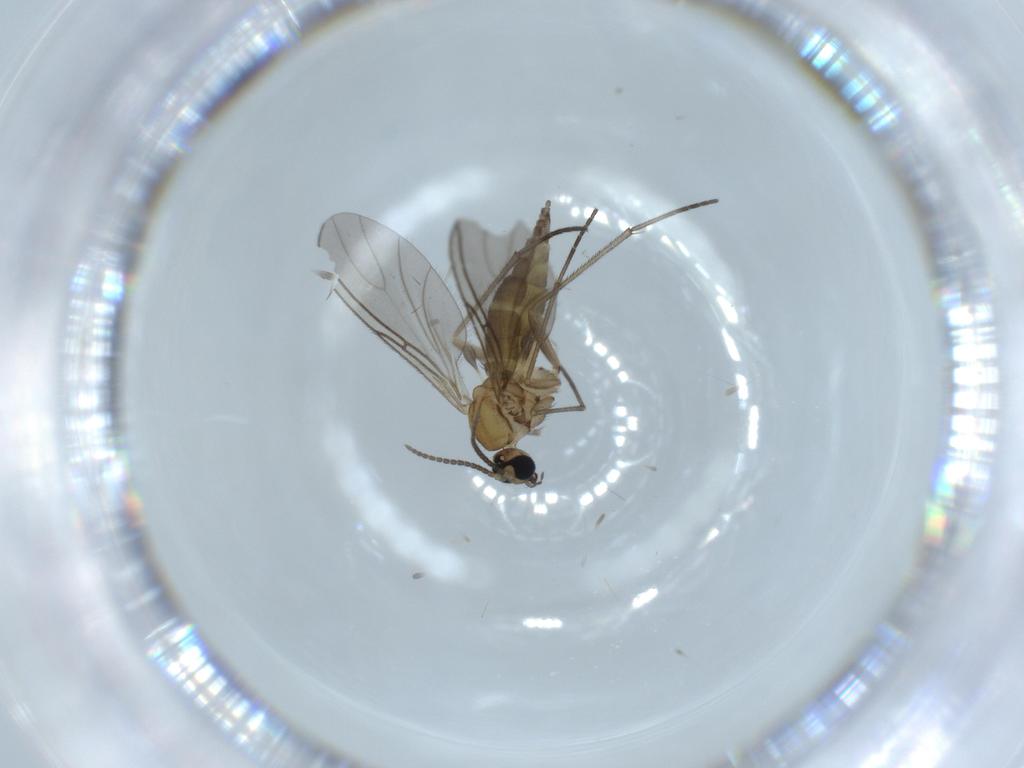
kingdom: Animalia
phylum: Arthropoda
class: Insecta
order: Diptera
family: Sciaridae
